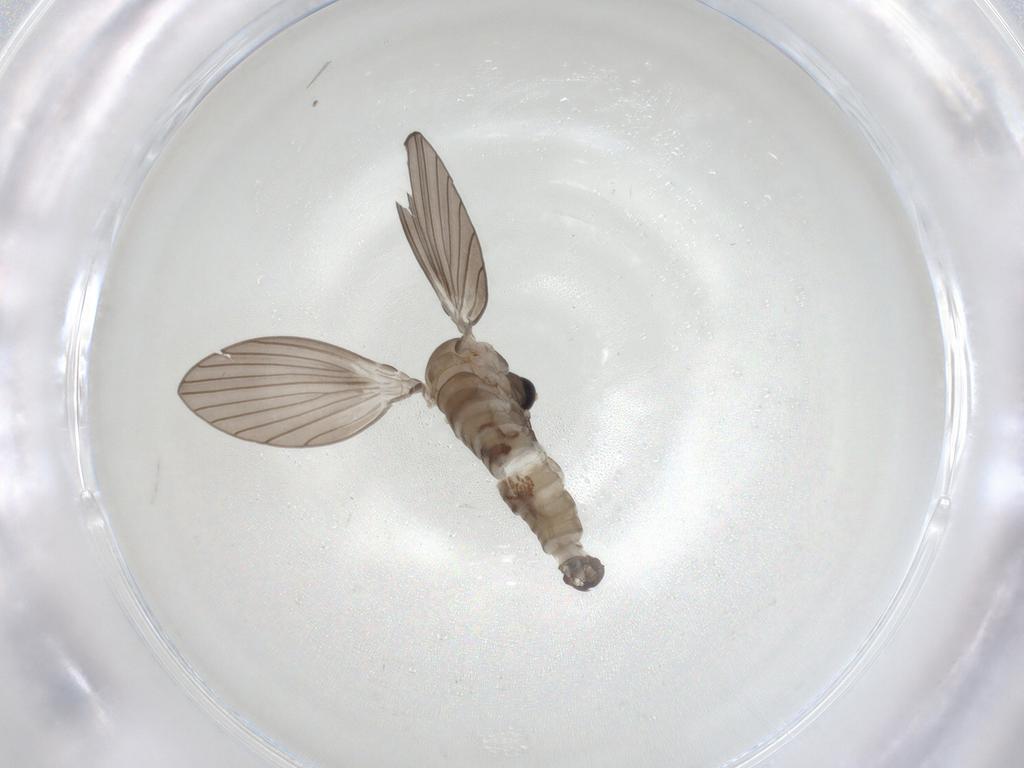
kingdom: Animalia
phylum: Arthropoda
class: Insecta
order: Diptera
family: Psychodidae
